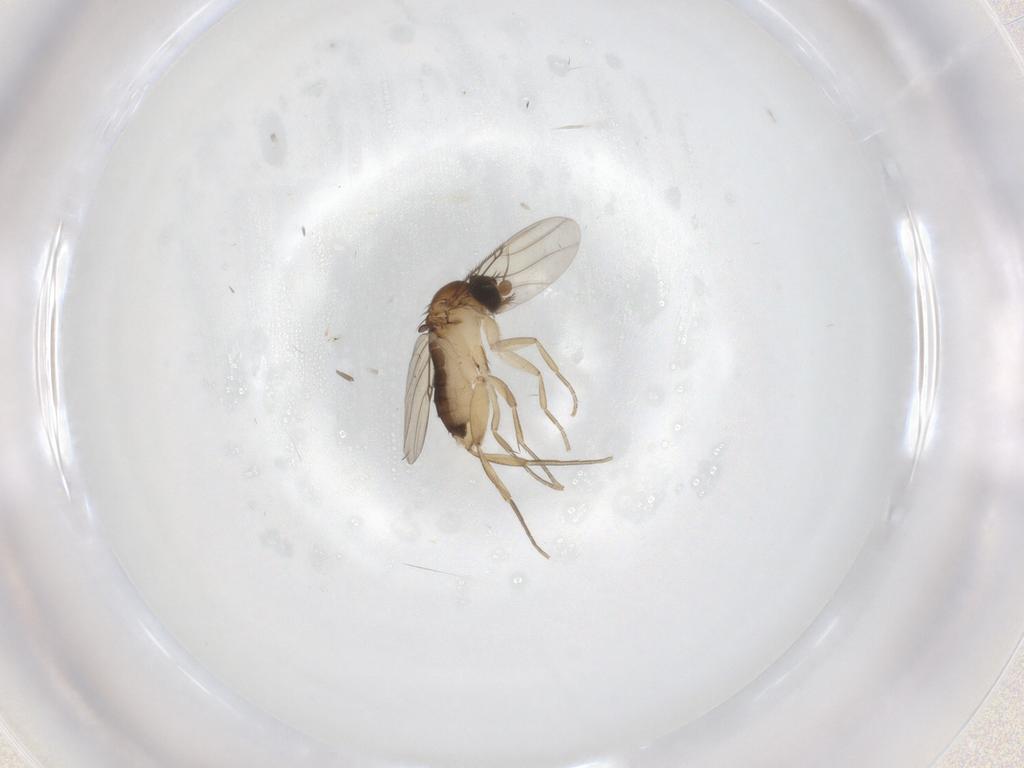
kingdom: Animalia
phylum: Arthropoda
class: Insecta
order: Diptera
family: Phoridae
